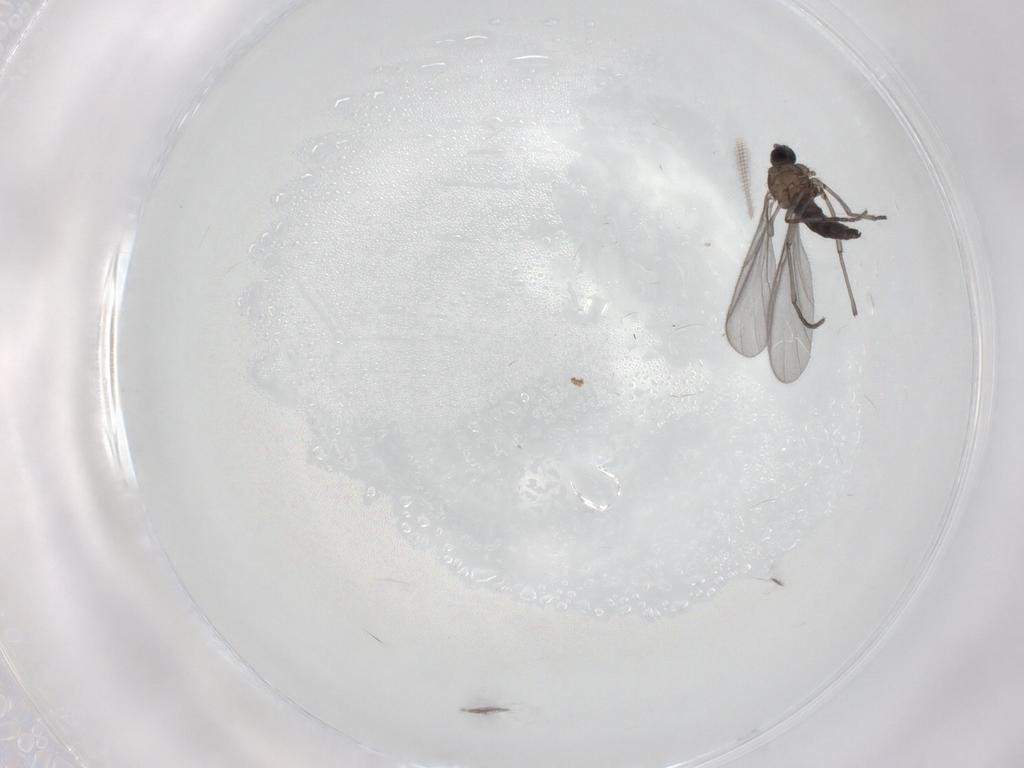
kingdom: Animalia
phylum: Arthropoda
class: Insecta
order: Diptera
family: Sciaridae
